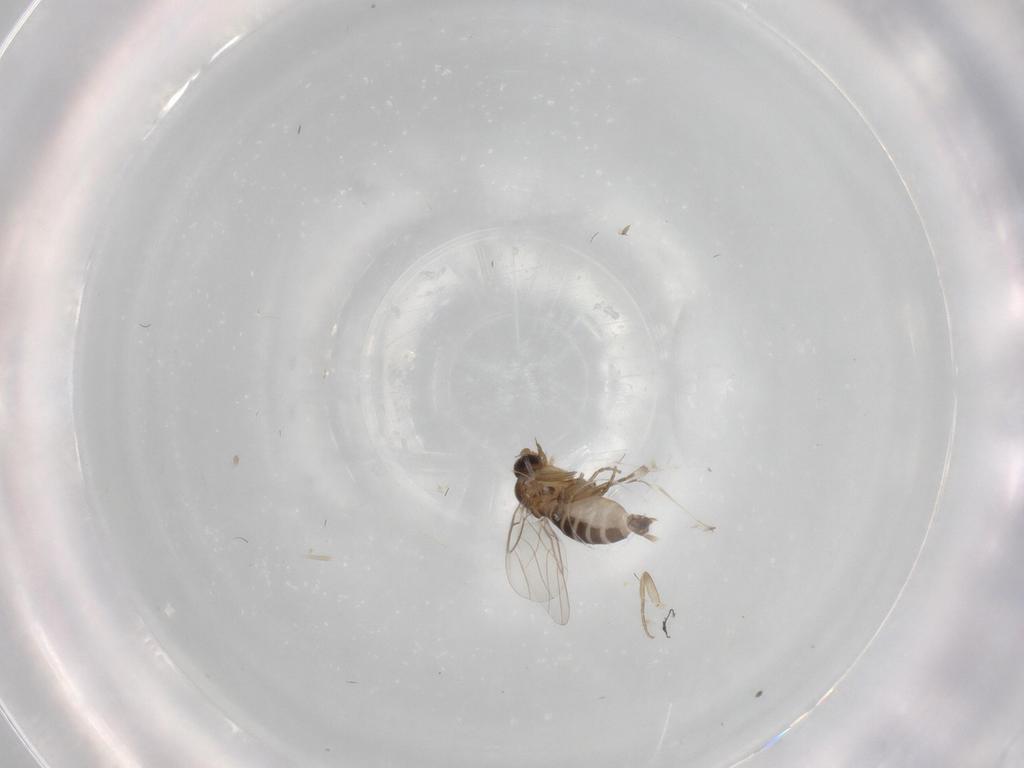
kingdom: Animalia
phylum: Arthropoda
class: Insecta
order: Diptera
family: Phoridae
